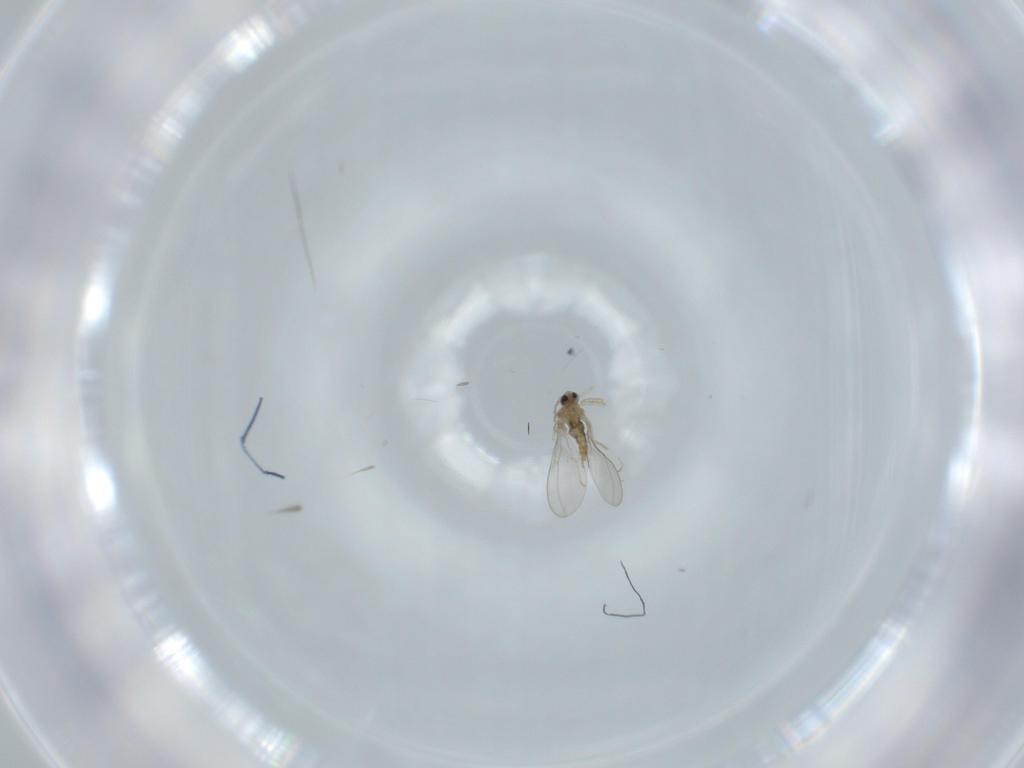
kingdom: Animalia
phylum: Arthropoda
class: Insecta
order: Diptera
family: Cecidomyiidae
